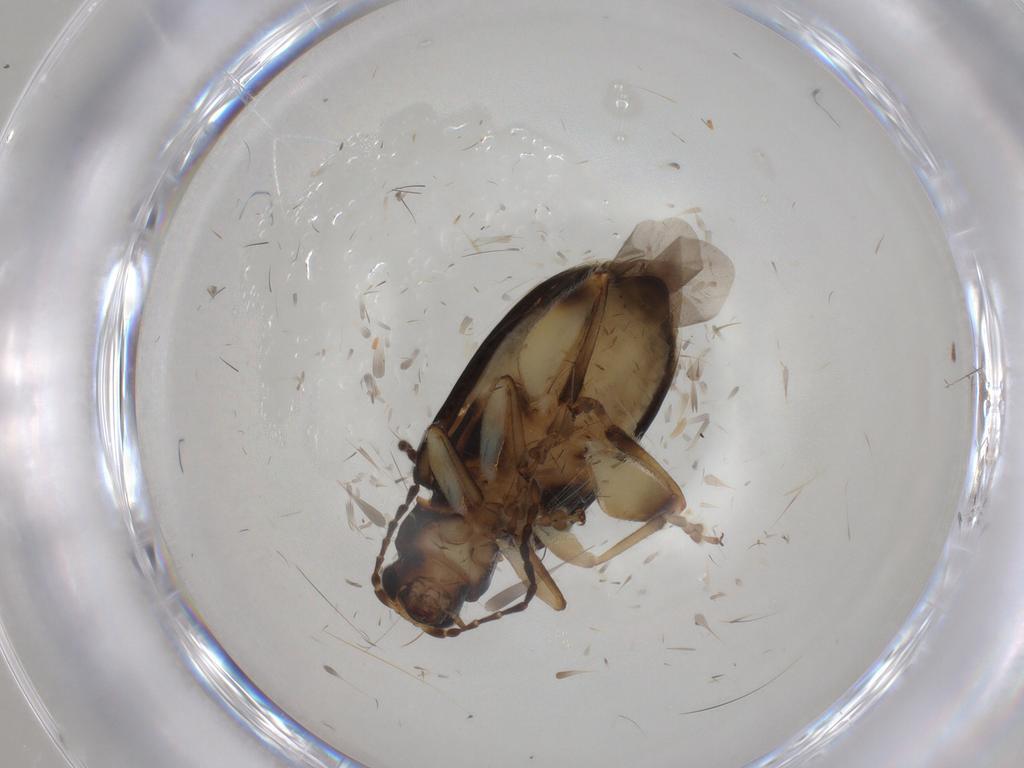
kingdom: Animalia
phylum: Arthropoda
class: Insecta
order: Coleoptera
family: Chrysomelidae
